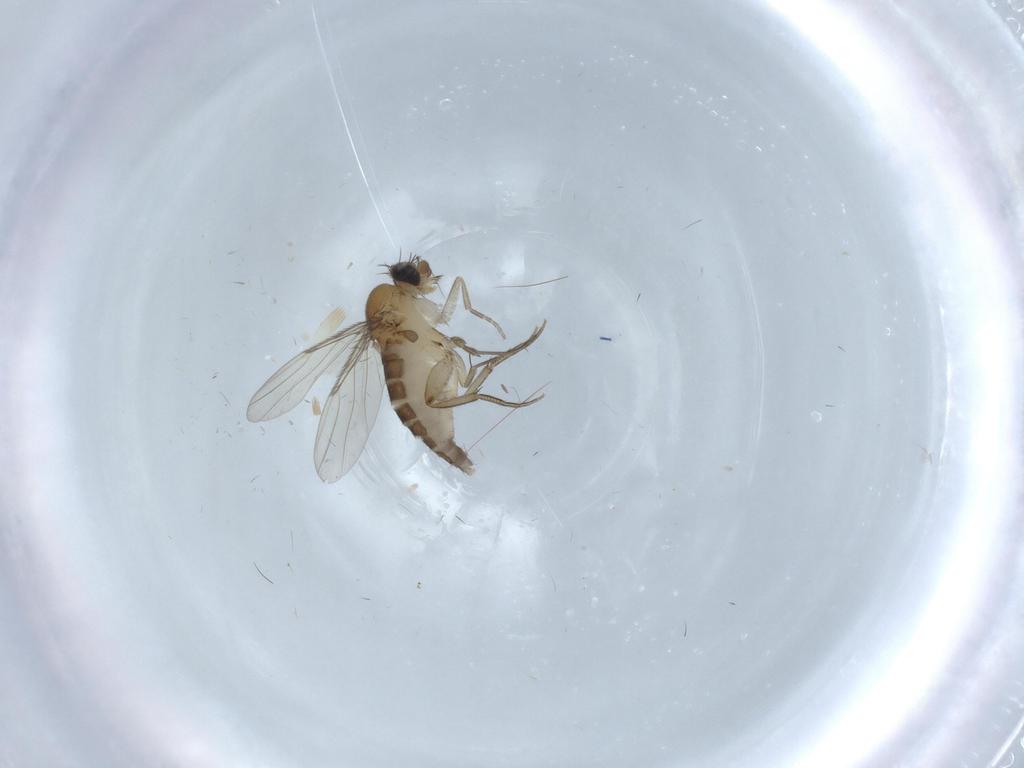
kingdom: Animalia
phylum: Arthropoda
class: Insecta
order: Diptera
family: Phoridae
